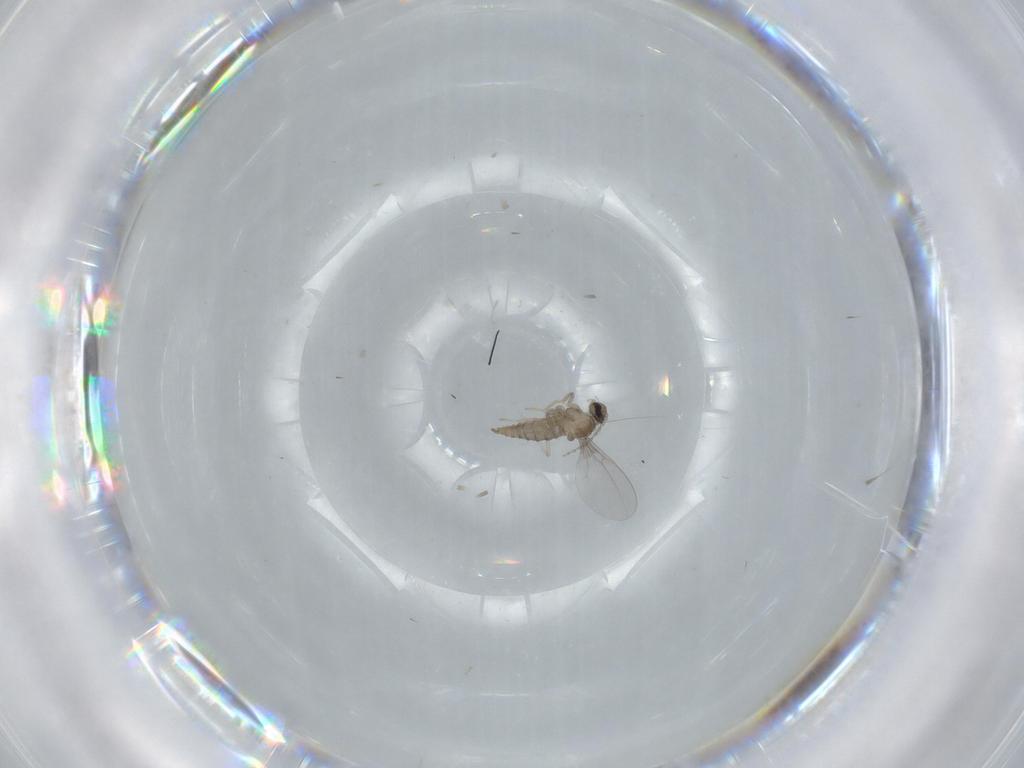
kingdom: Animalia
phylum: Arthropoda
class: Insecta
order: Diptera
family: Cecidomyiidae
